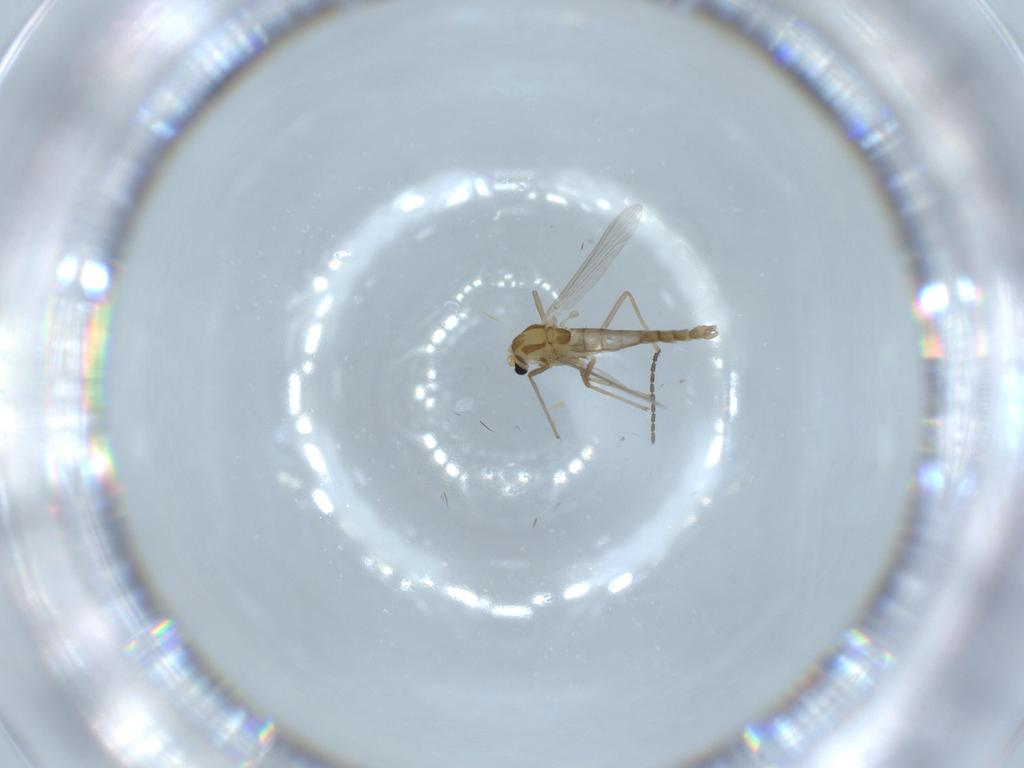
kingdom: Animalia
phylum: Arthropoda
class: Insecta
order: Diptera
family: Chironomidae
